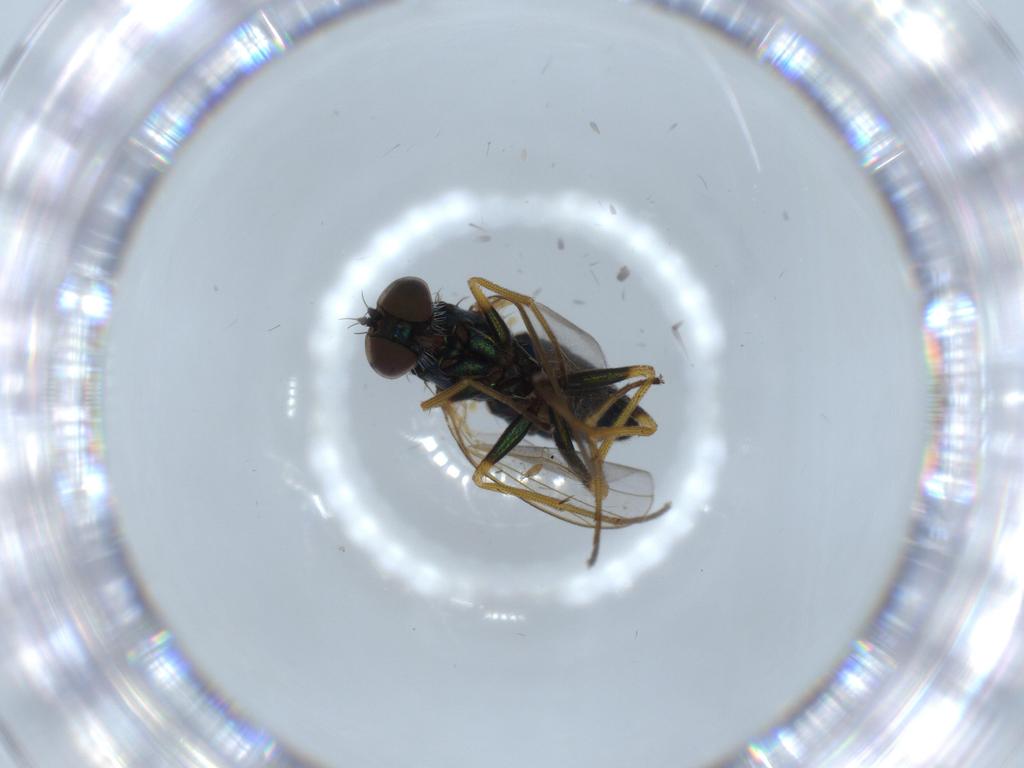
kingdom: Animalia
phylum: Arthropoda
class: Insecta
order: Diptera
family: Dolichopodidae
